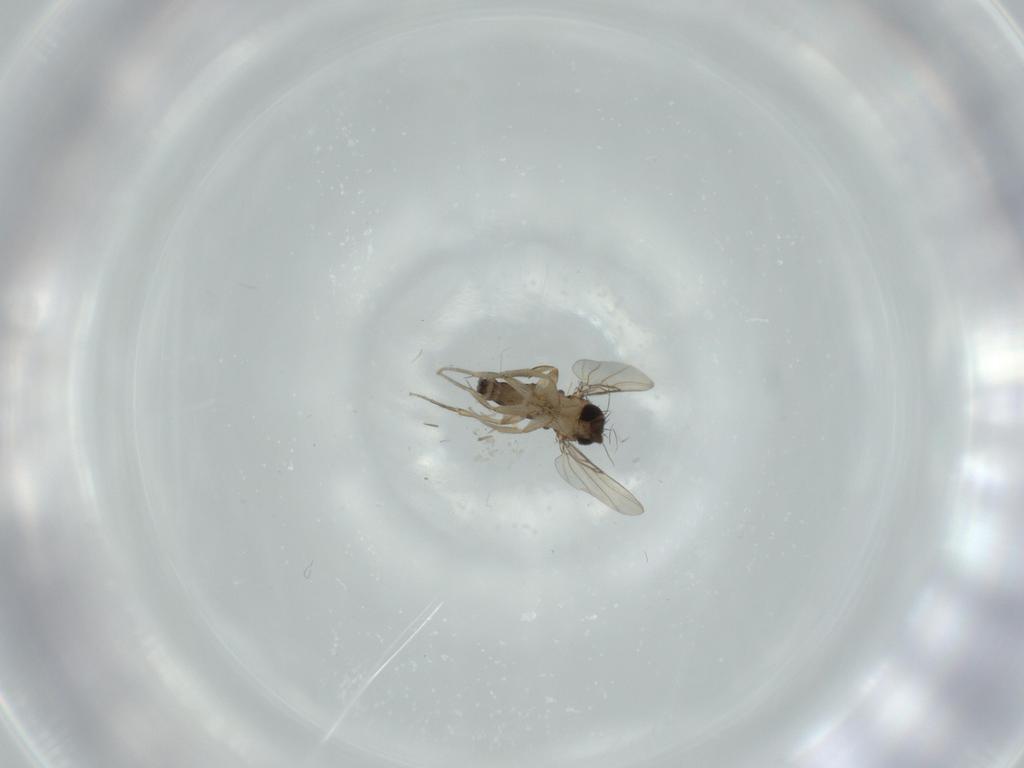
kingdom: Animalia
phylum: Arthropoda
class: Insecta
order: Diptera
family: Phoridae
